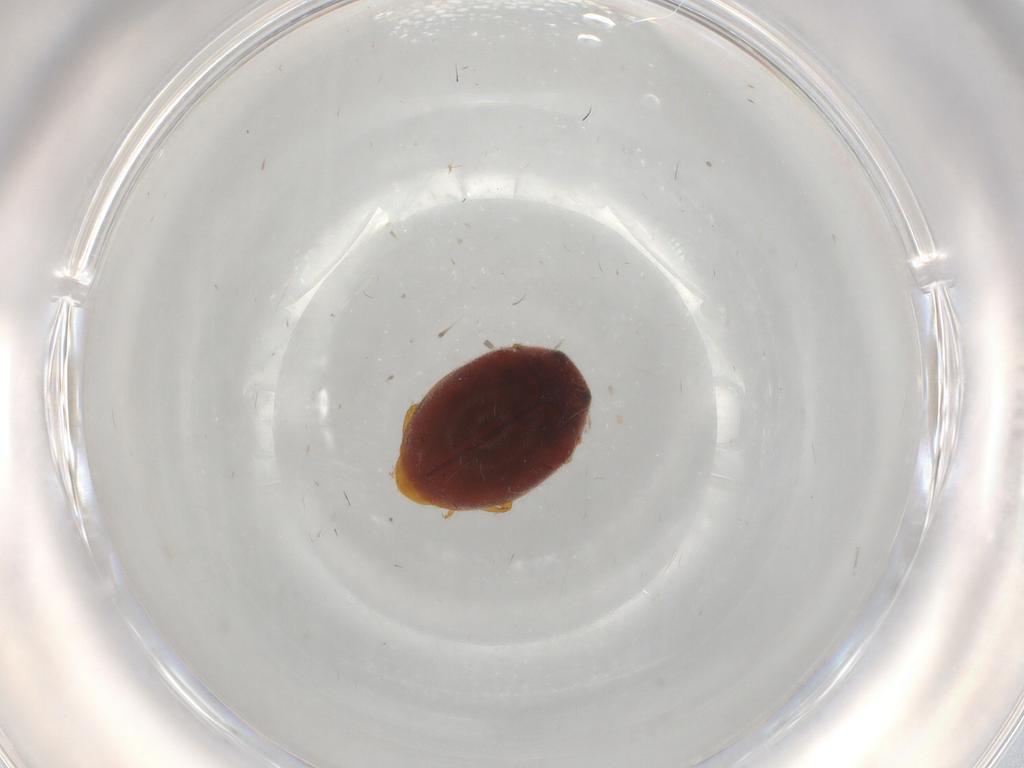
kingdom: Animalia
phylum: Arthropoda
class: Insecta
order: Coleoptera
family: Coccinellidae
